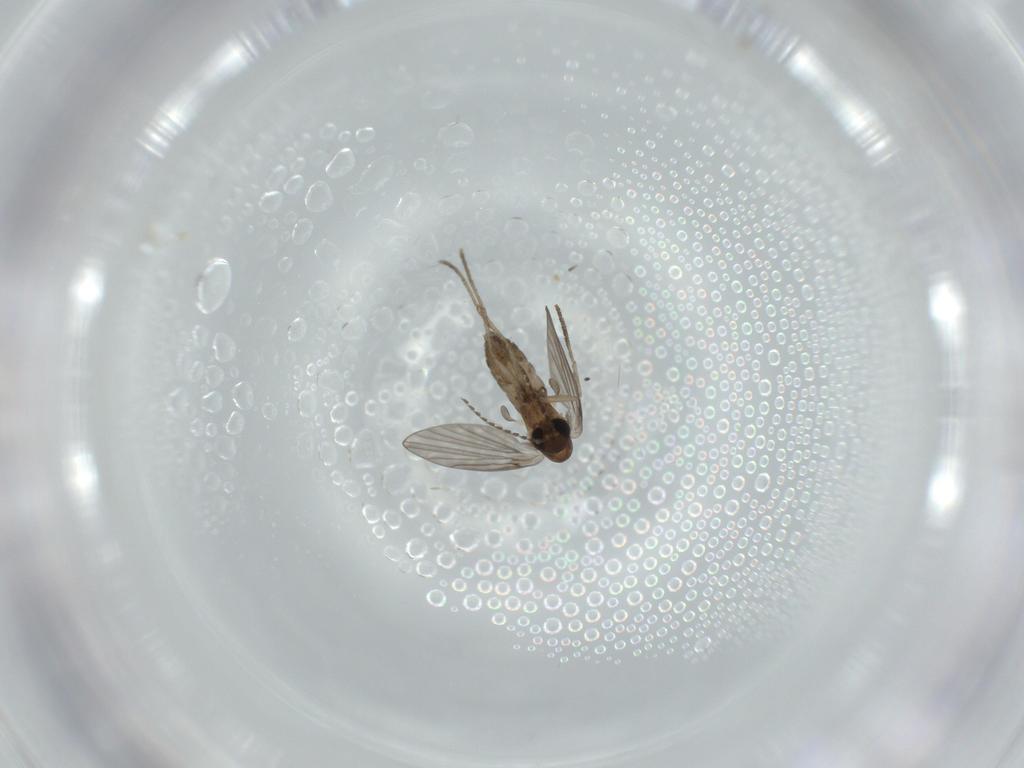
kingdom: Animalia
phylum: Arthropoda
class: Insecta
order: Diptera
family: Psychodidae
